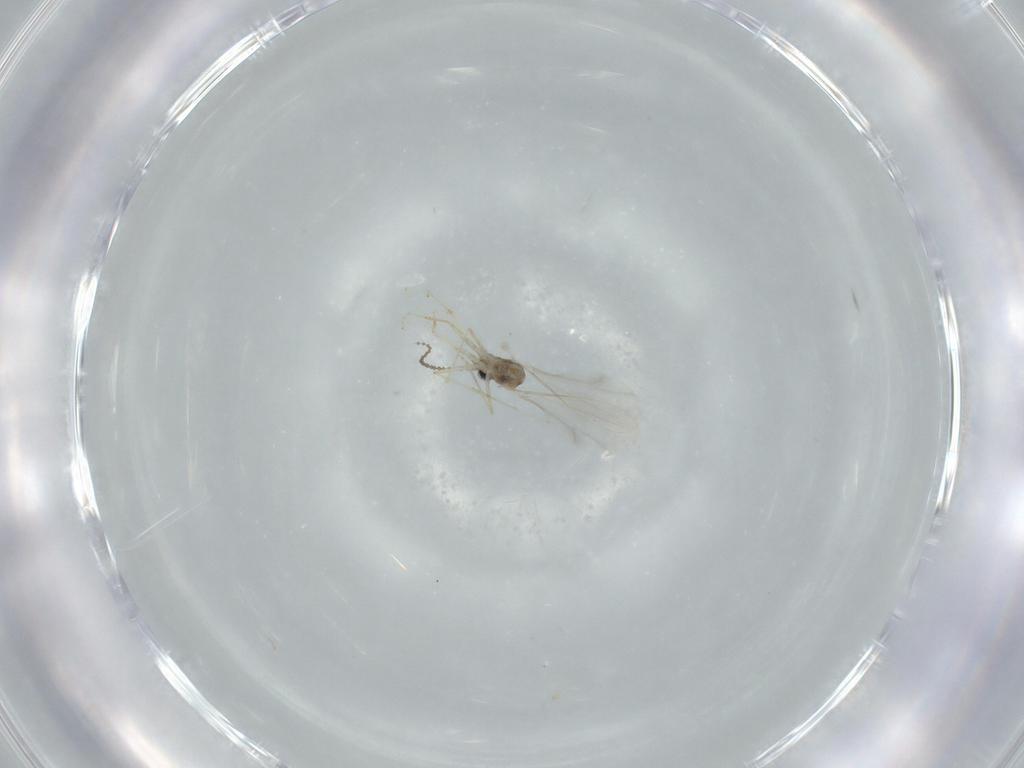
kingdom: Animalia
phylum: Arthropoda
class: Insecta
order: Diptera
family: Cecidomyiidae
